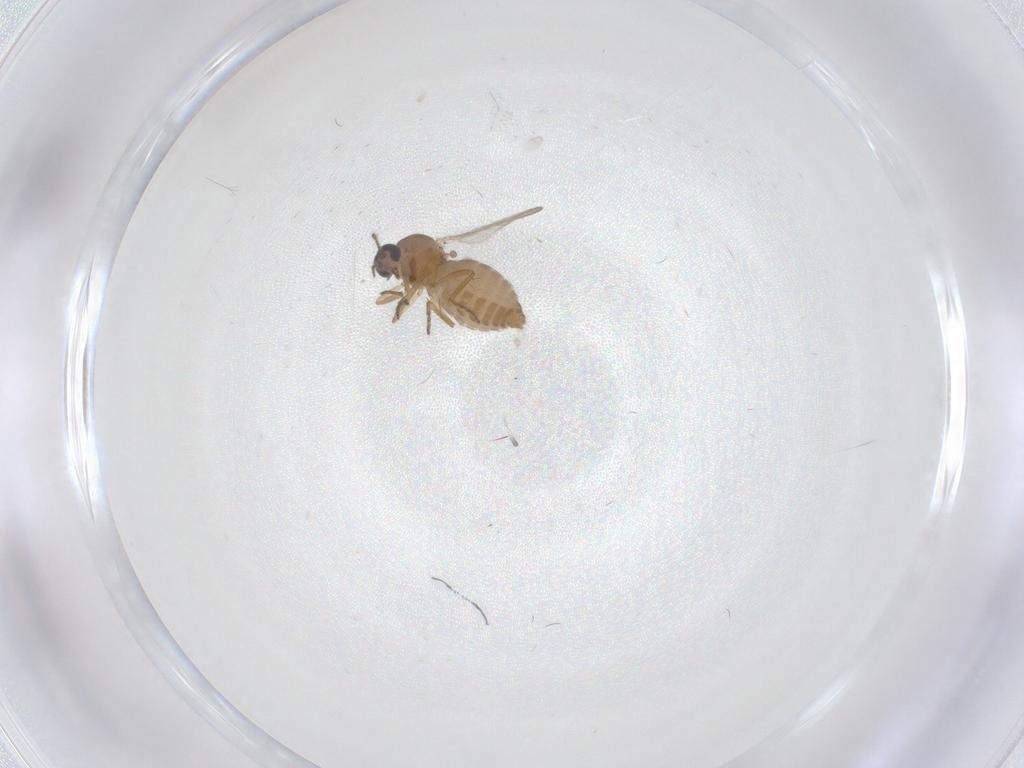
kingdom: Animalia
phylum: Arthropoda
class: Insecta
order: Diptera
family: Ceratopogonidae
